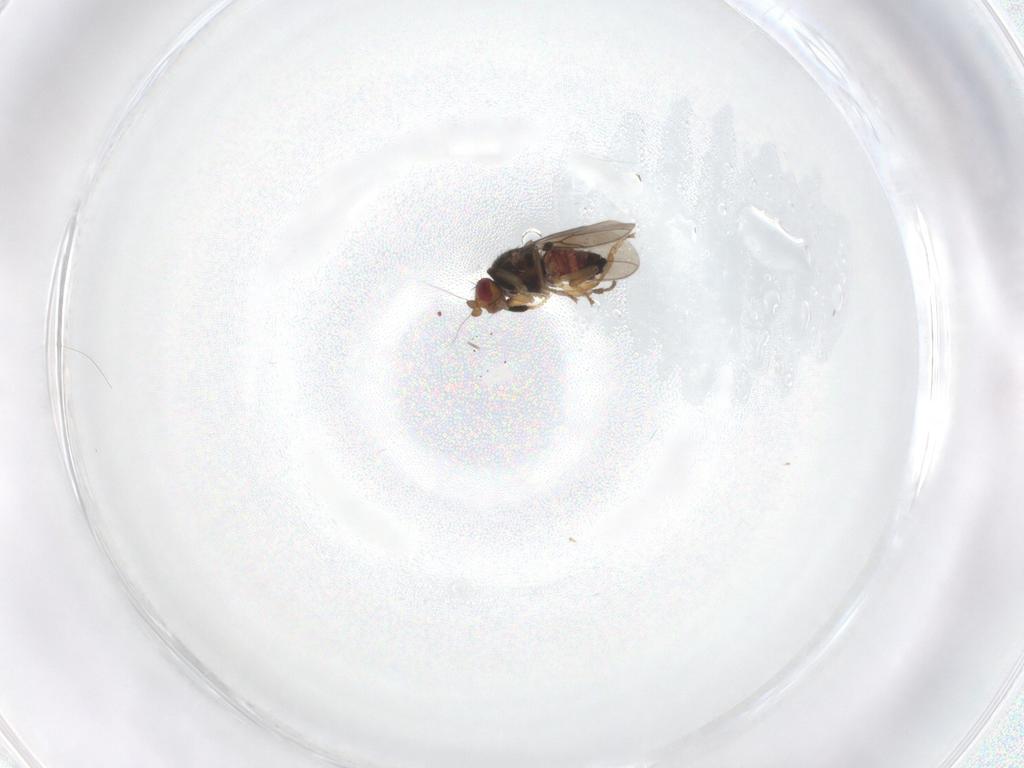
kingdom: Animalia
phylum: Arthropoda
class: Insecta
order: Diptera
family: Sphaeroceridae
